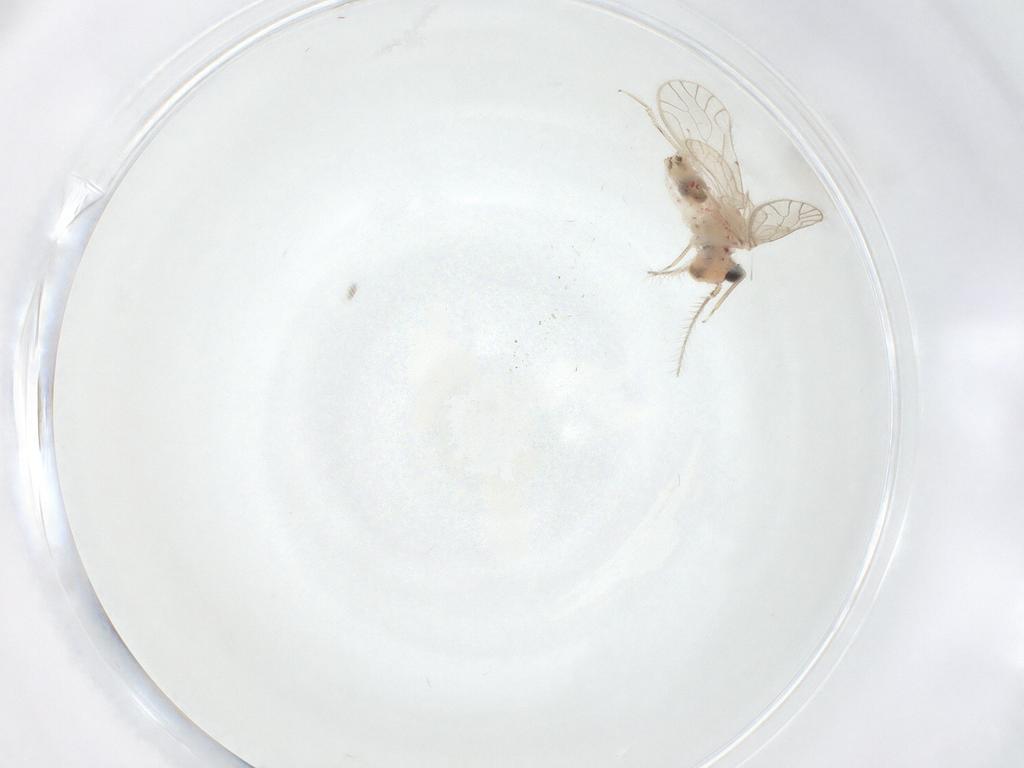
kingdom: Animalia
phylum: Arthropoda
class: Insecta
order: Psocodea
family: Caeciliusidae
